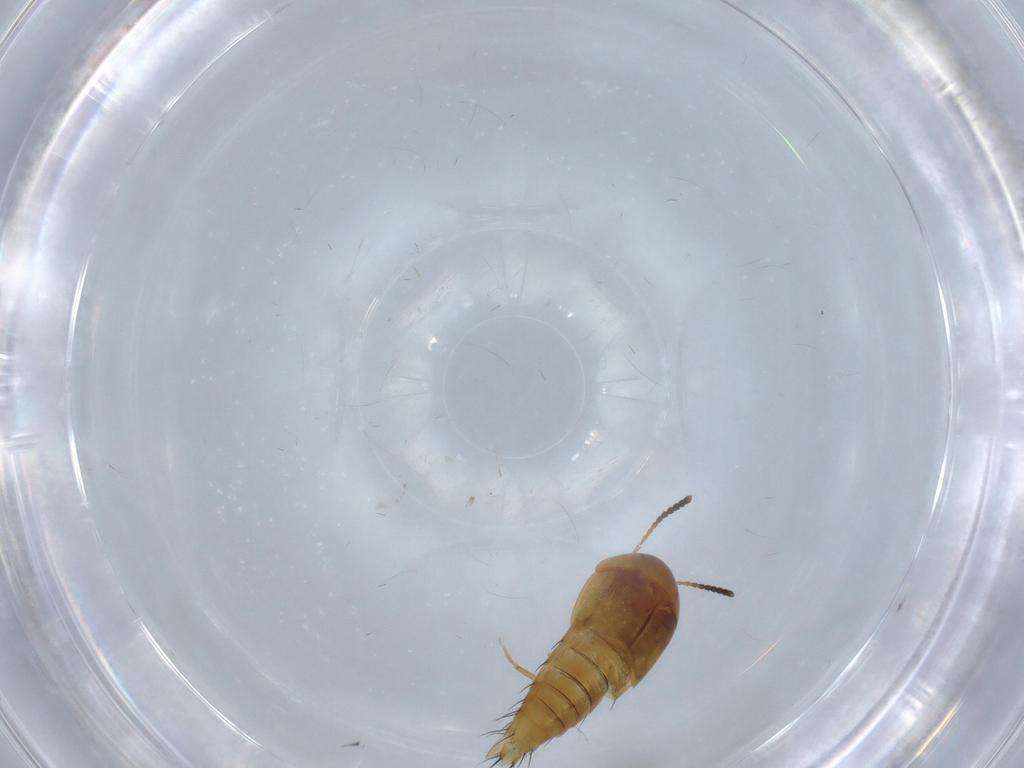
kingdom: Animalia
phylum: Arthropoda
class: Insecta
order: Coleoptera
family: Staphylinidae
